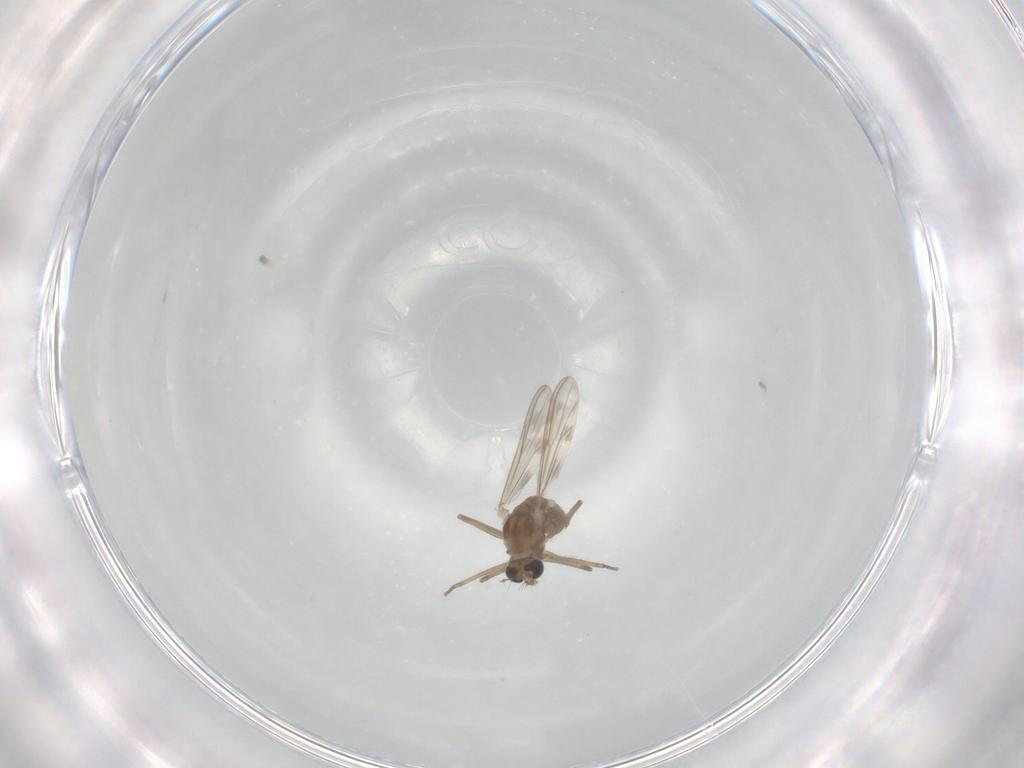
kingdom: Animalia
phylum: Arthropoda
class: Insecta
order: Diptera
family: Chironomidae
